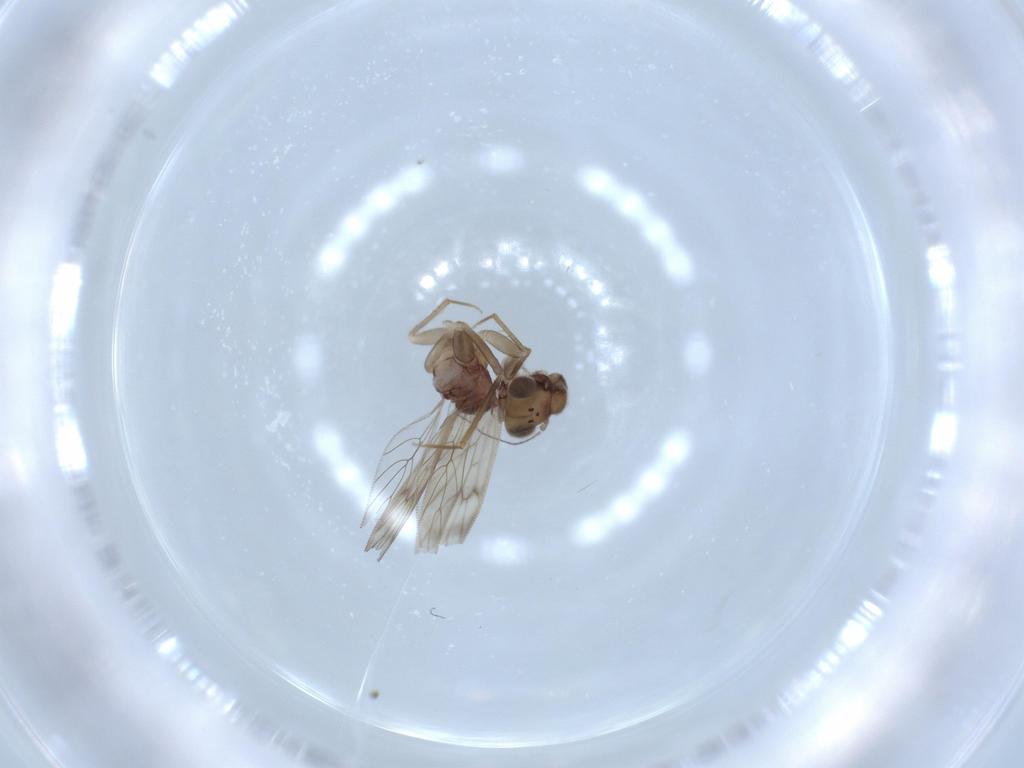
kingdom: Animalia
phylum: Arthropoda
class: Insecta
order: Psocodea
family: Lepidopsocidae
